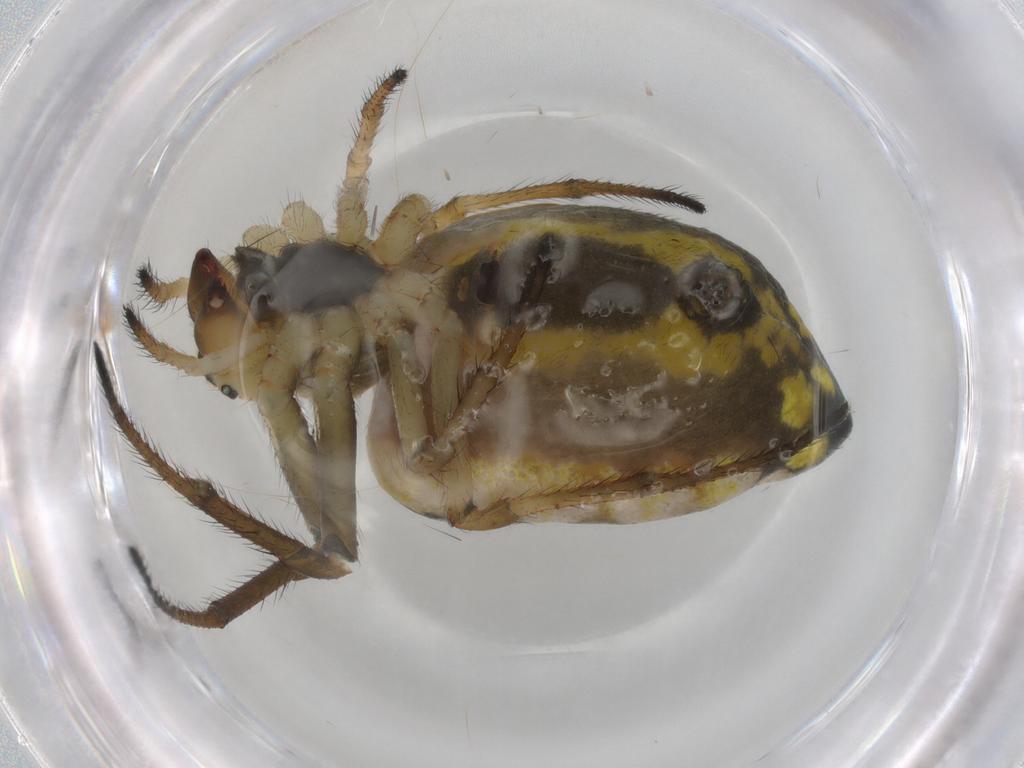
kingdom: Animalia
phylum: Arthropoda
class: Arachnida
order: Araneae
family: Araneidae
